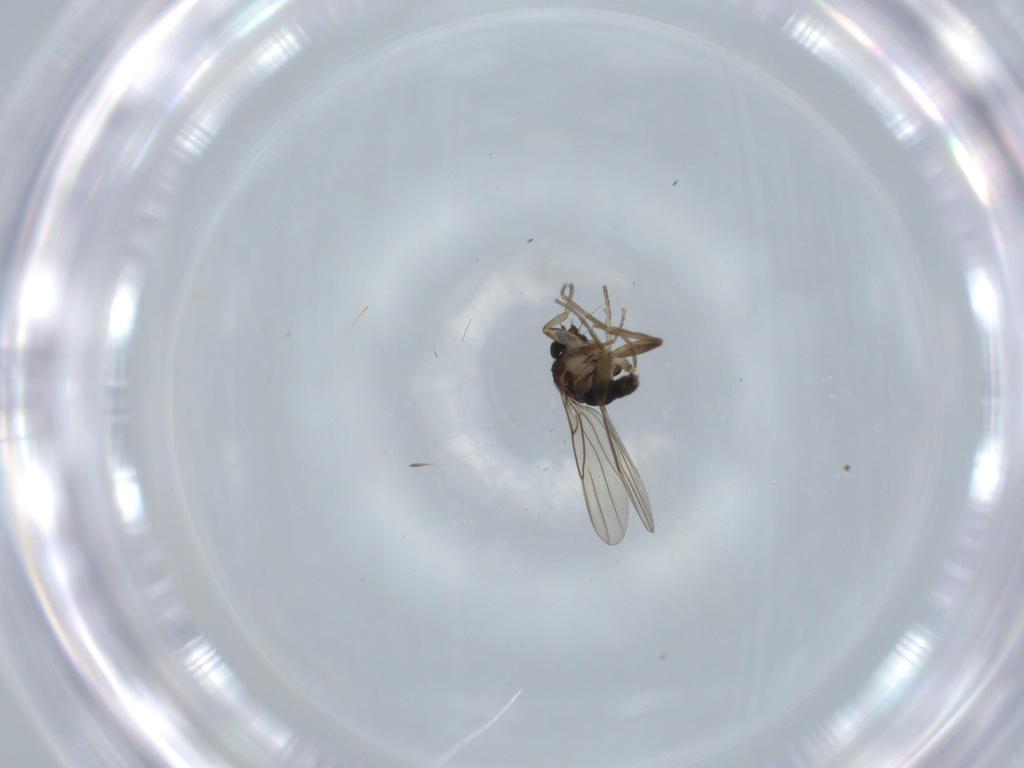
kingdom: Animalia
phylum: Arthropoda
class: Insecta
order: Diptera
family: Phoridae
